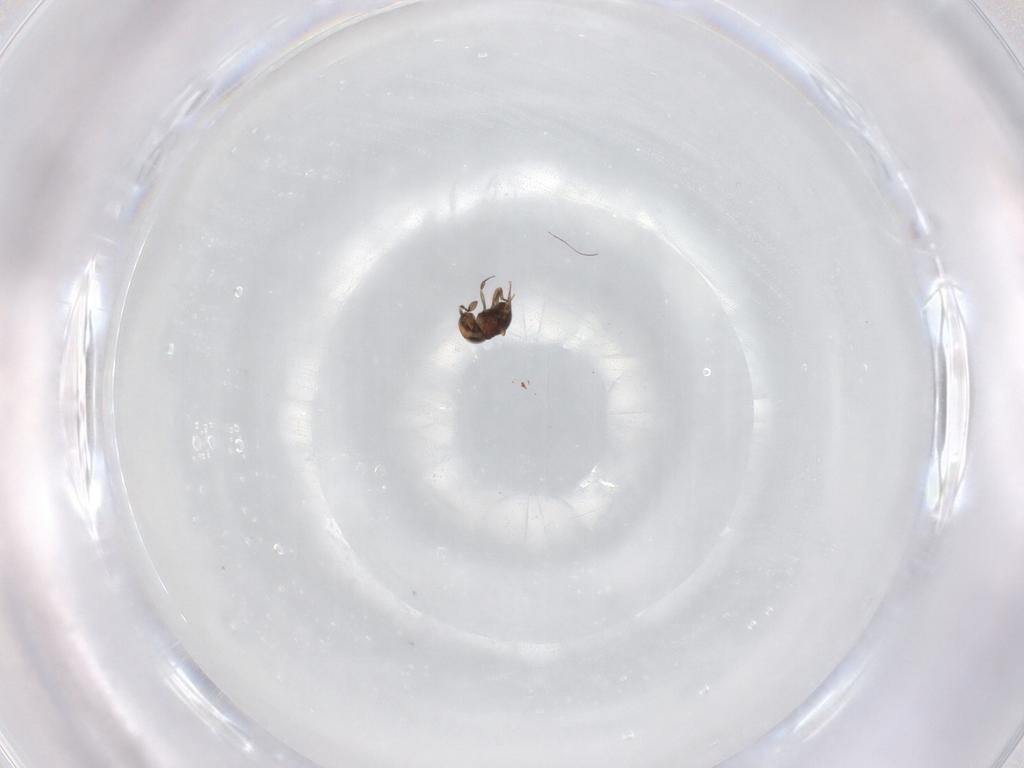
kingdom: Animalia
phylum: Arthropoda
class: Insecta
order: Hymenoptera
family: Scelionidae
